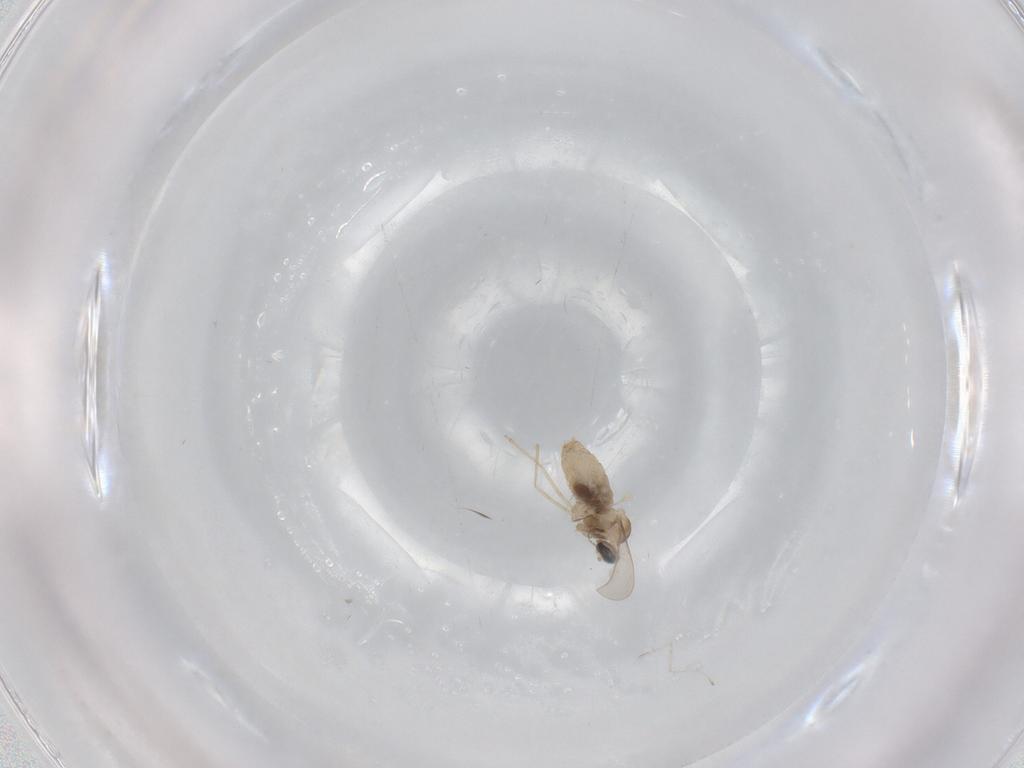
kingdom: Animalia
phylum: Arthropoda
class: Insecta
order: Diptera
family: Cecidomyiidae
